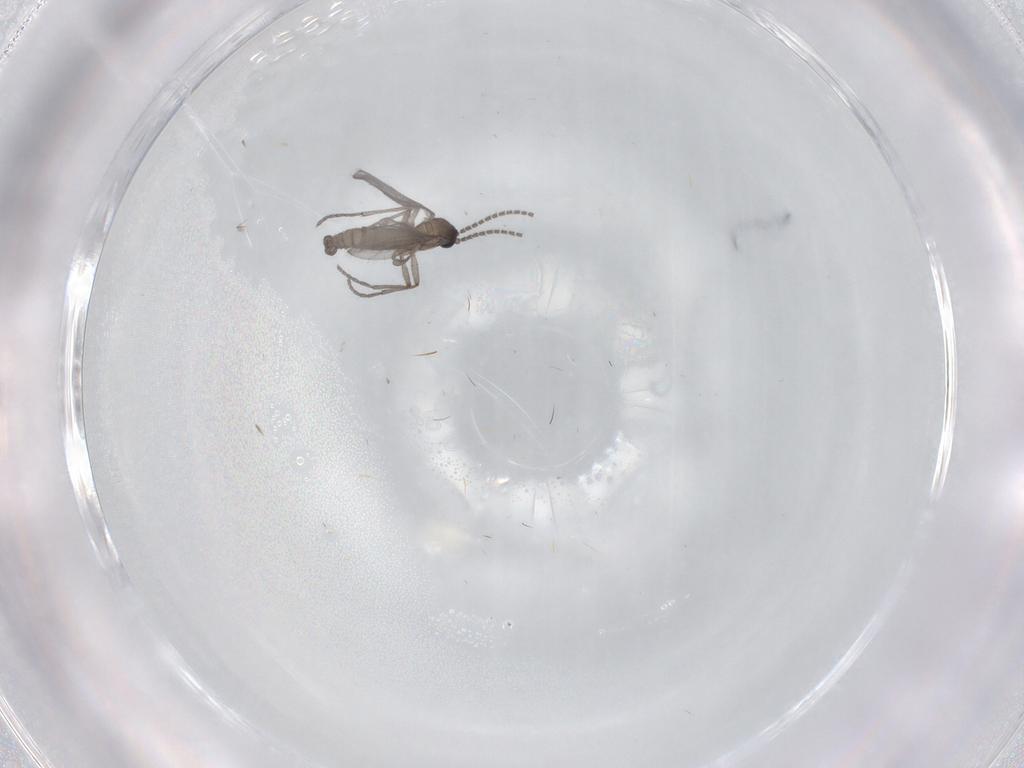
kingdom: Animalia
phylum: Arthropoda
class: Insecta
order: Diptera
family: Sciaridae
